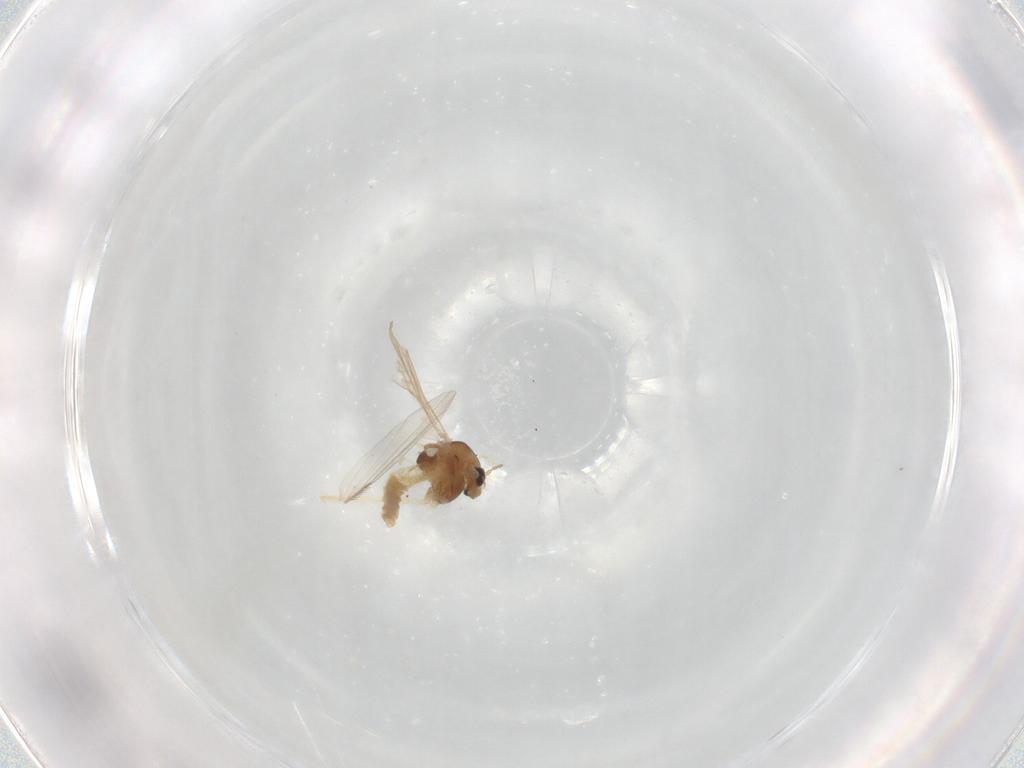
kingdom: Animalia
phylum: Arthropoda
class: Insecta
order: Diptera
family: Chironomidae
